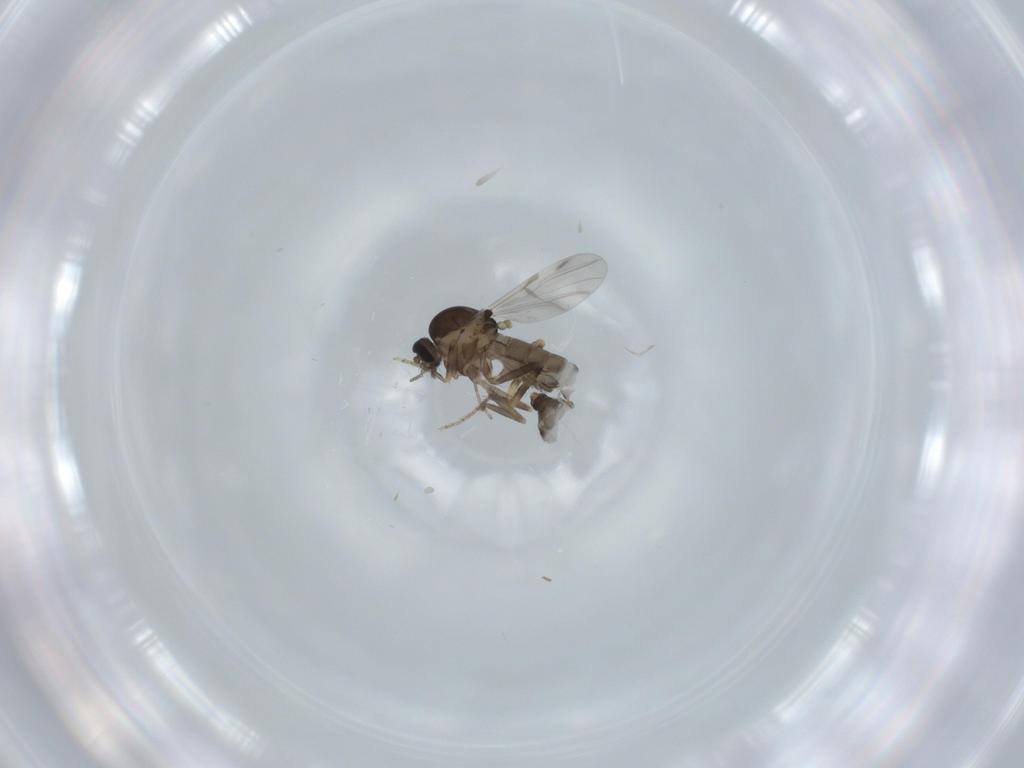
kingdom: Animalia
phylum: Arthropoda
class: Insecta
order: Diptera
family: Ceratopogonidae
